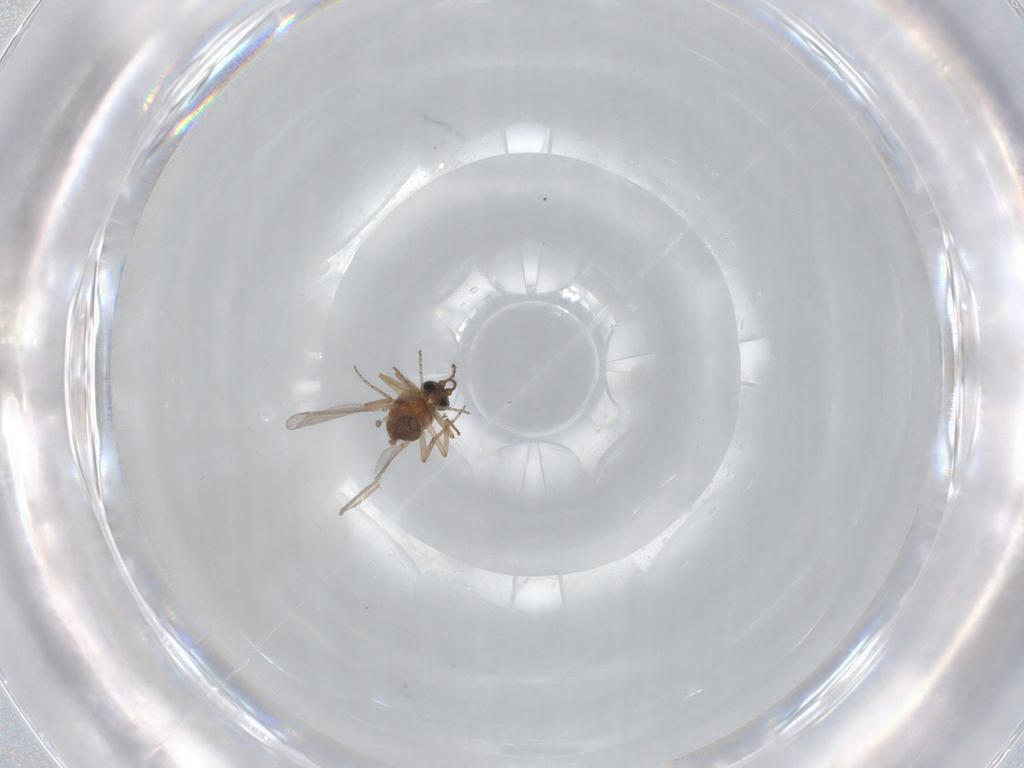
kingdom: Animalia
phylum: Arthropoda
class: Insecta
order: Diptera
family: Ceratopogonidae
